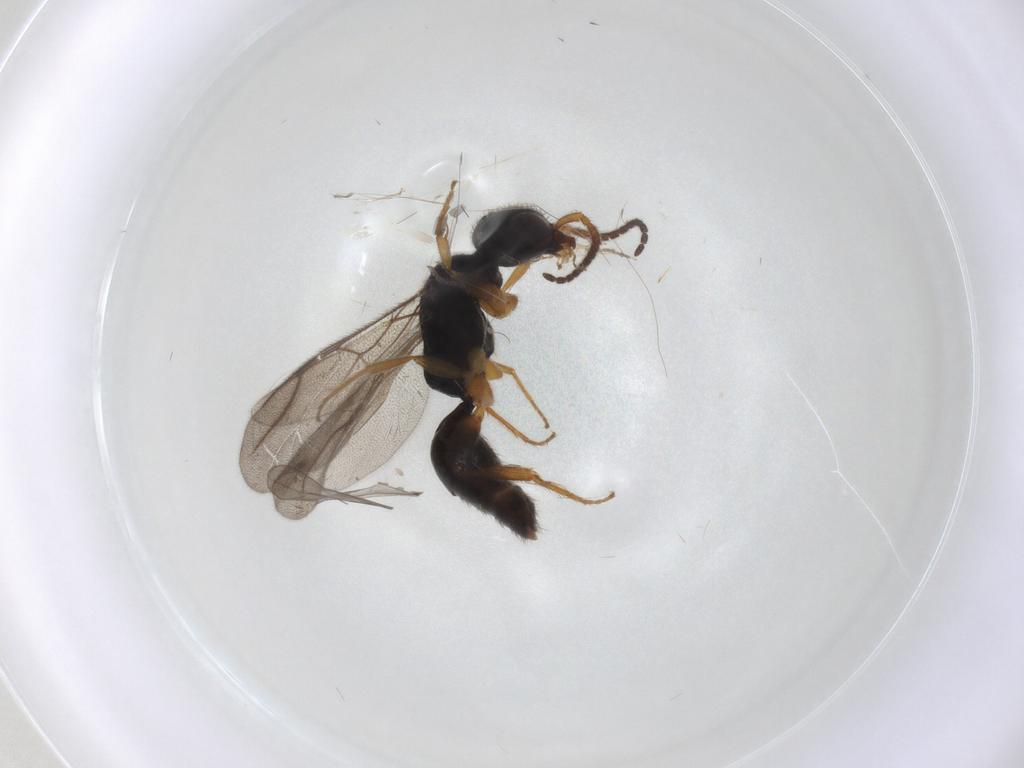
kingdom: Animalia
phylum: Arthropoda
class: Insecta
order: Hymenoptera
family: Bethylidae
